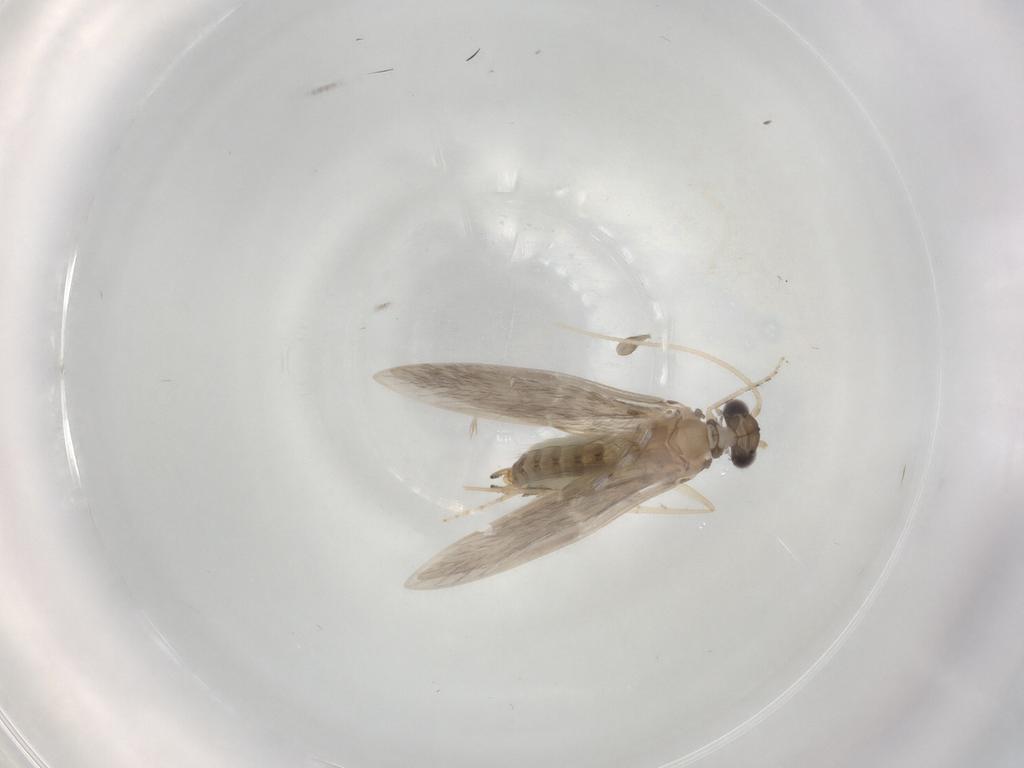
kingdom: Animalia
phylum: Arthropoda
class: Insecta
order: Trichoptera
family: Hydroptilidae
